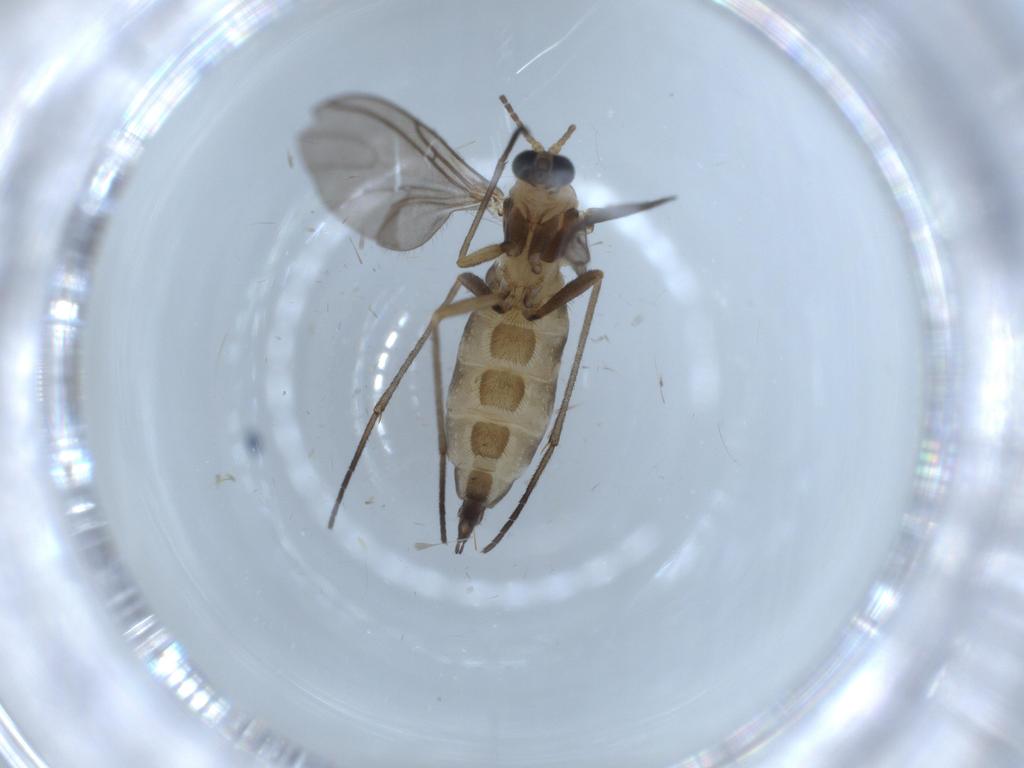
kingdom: Animalia
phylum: Arthropoda
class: Insecta
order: Diptera
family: Sciaridae
